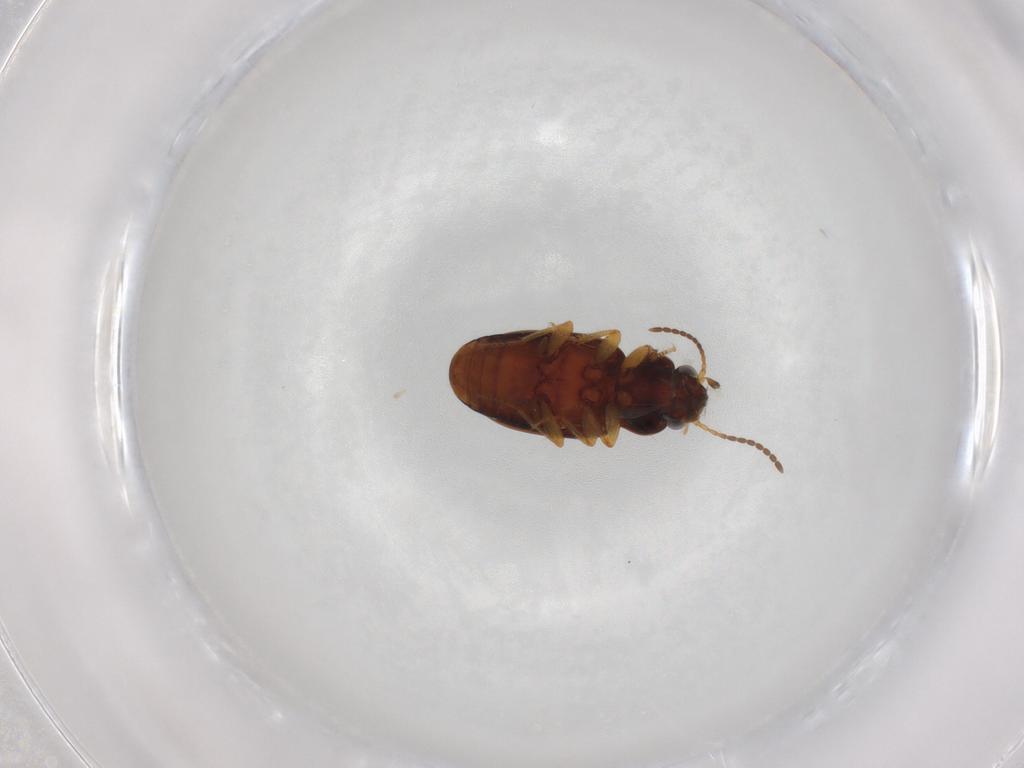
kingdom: Animalia
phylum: Arthropoda
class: Insecta
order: Coleoptera
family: Carabidae
